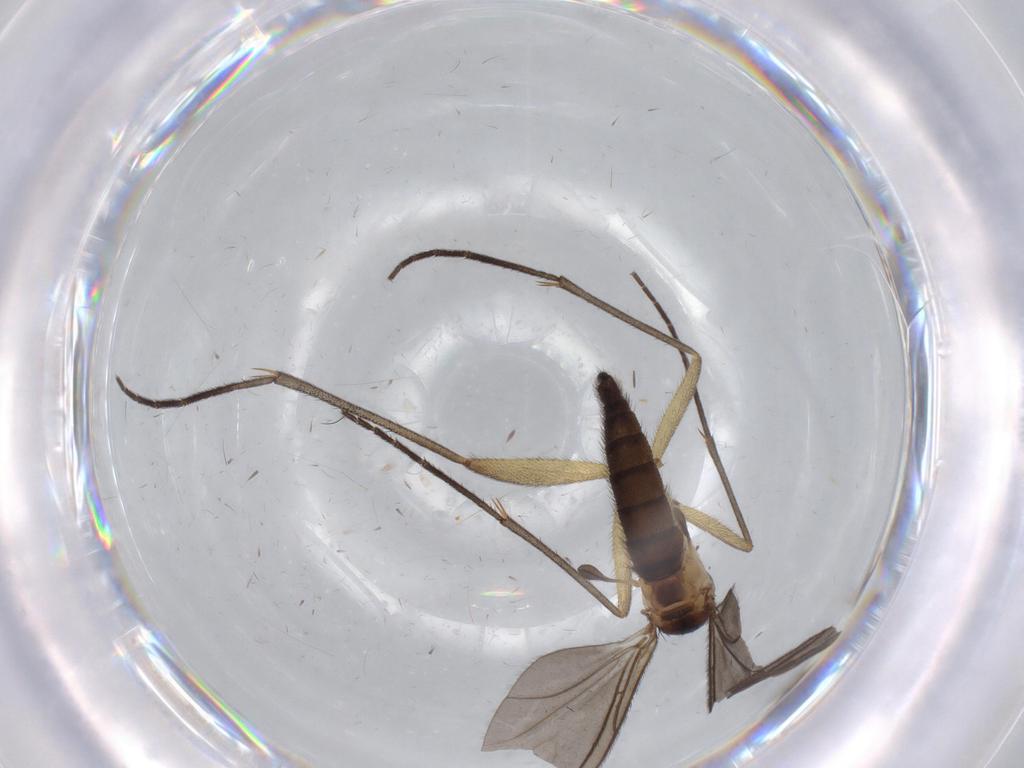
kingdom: Animalia
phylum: Arthropoda
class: Insecta
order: Diptera
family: Sciaridae
